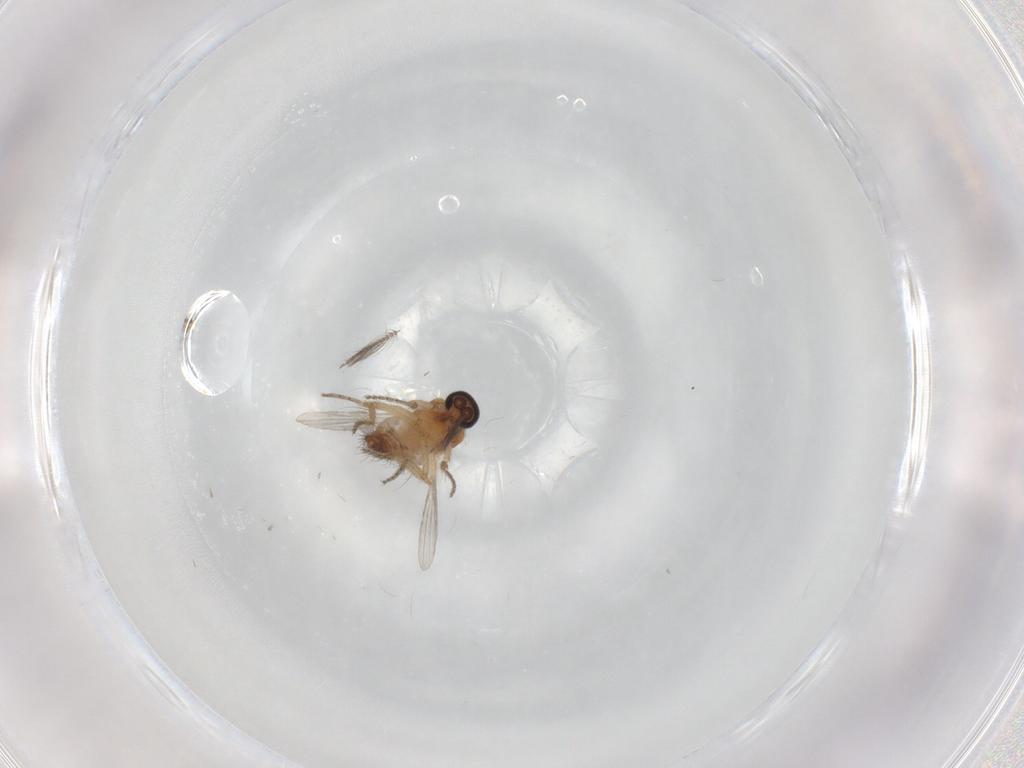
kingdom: Animalia
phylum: Arthropoda
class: Insecta
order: Diptera
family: Ceratopogonidae
